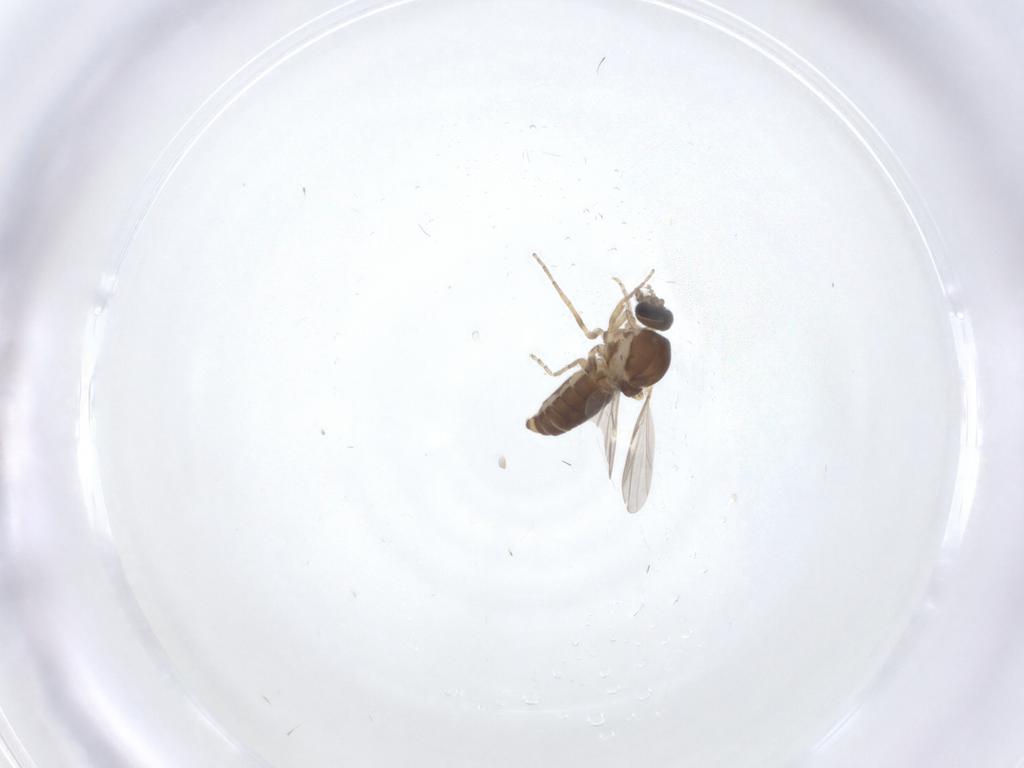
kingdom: Animalia
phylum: Arthropoda
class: Insecta
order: Diptera
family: Ceratopogonidae
